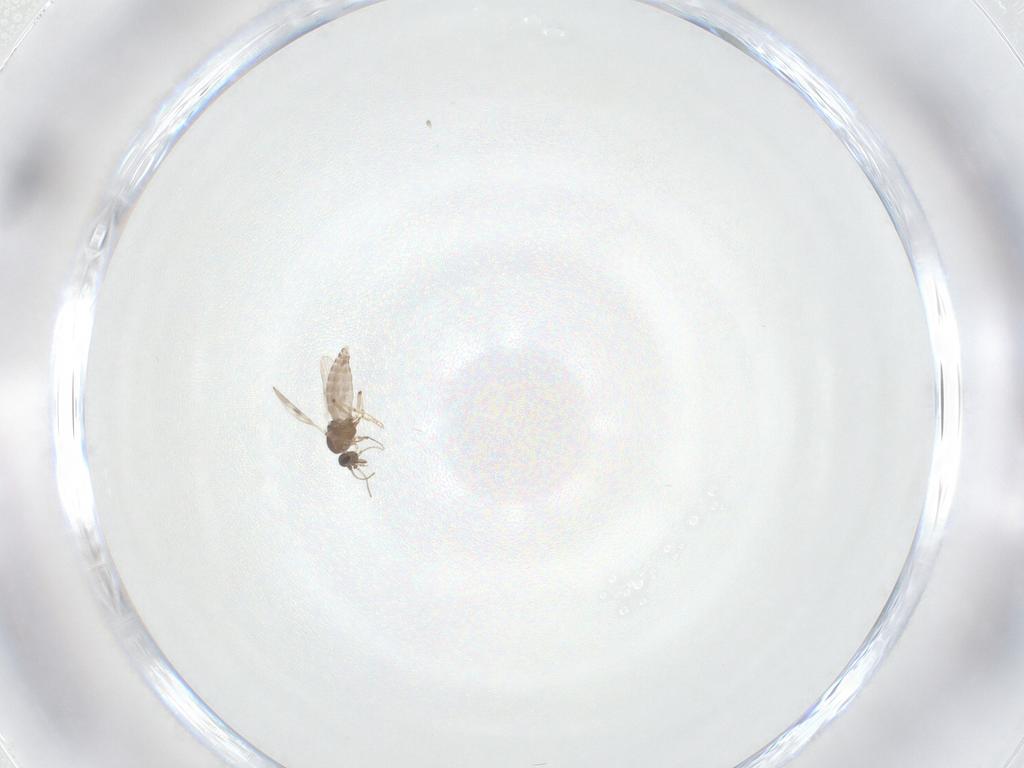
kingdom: Animalia
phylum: Arthropoda
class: Insecta
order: Diptera
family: Ceratopogonidae
